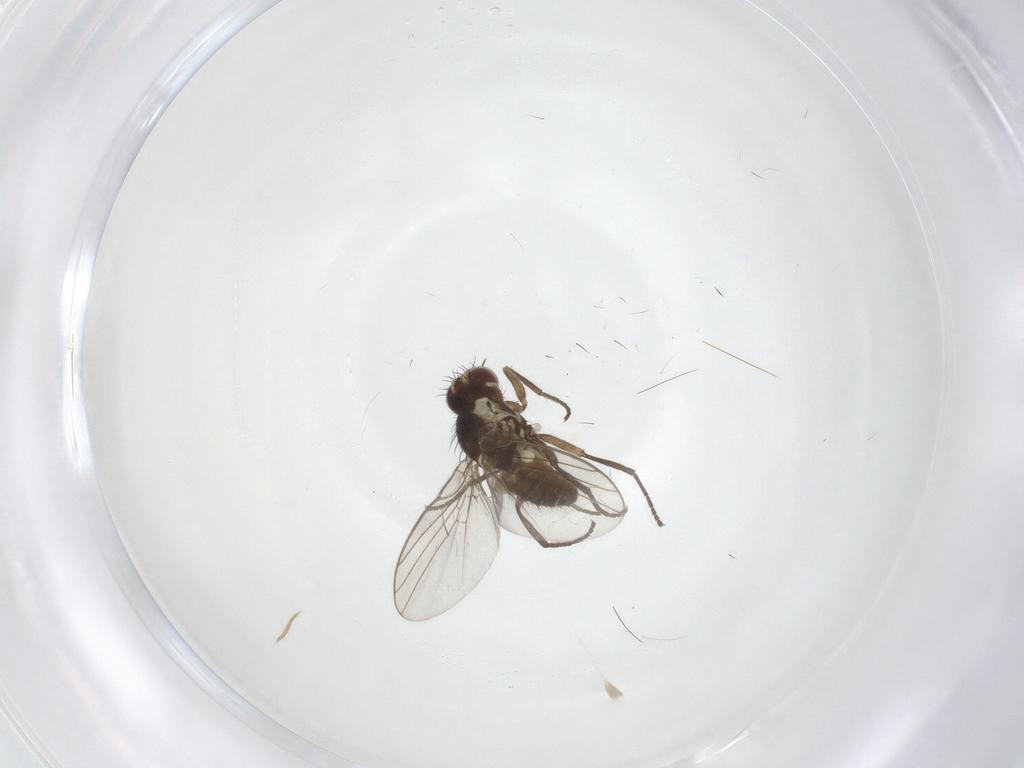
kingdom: Animalia
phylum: Arthropoda
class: Insecta
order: Diptera
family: Agromyzidae
